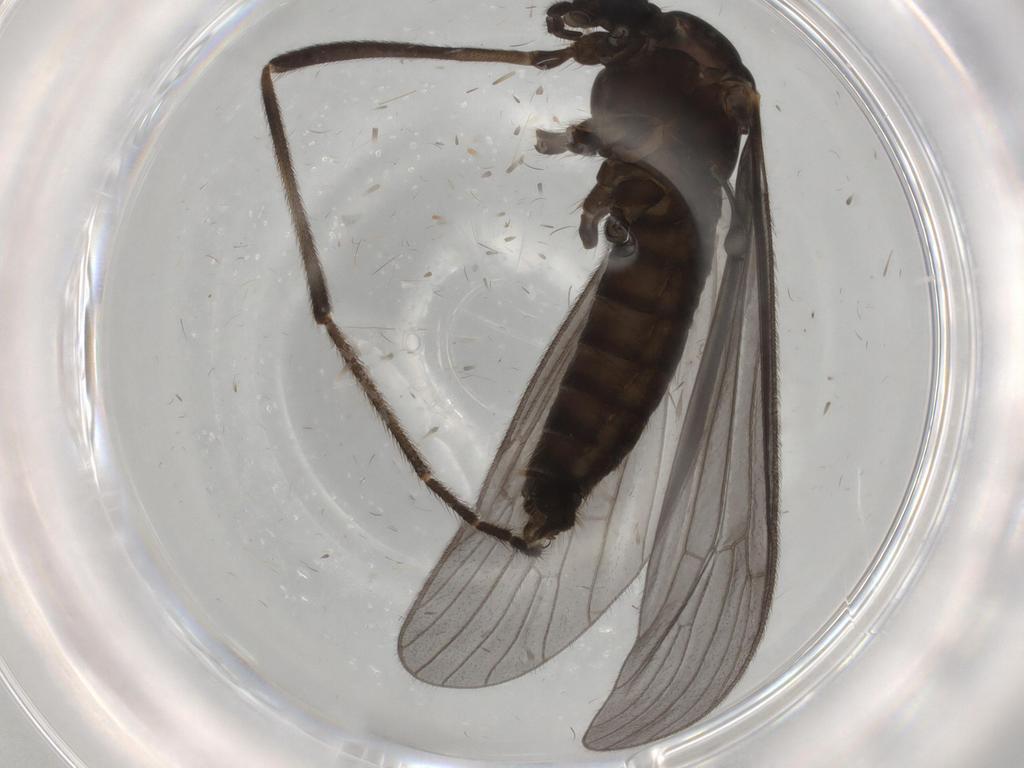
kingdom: Animalia
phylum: Arthropoda
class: Insecta
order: Diptera
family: Limoniidae
